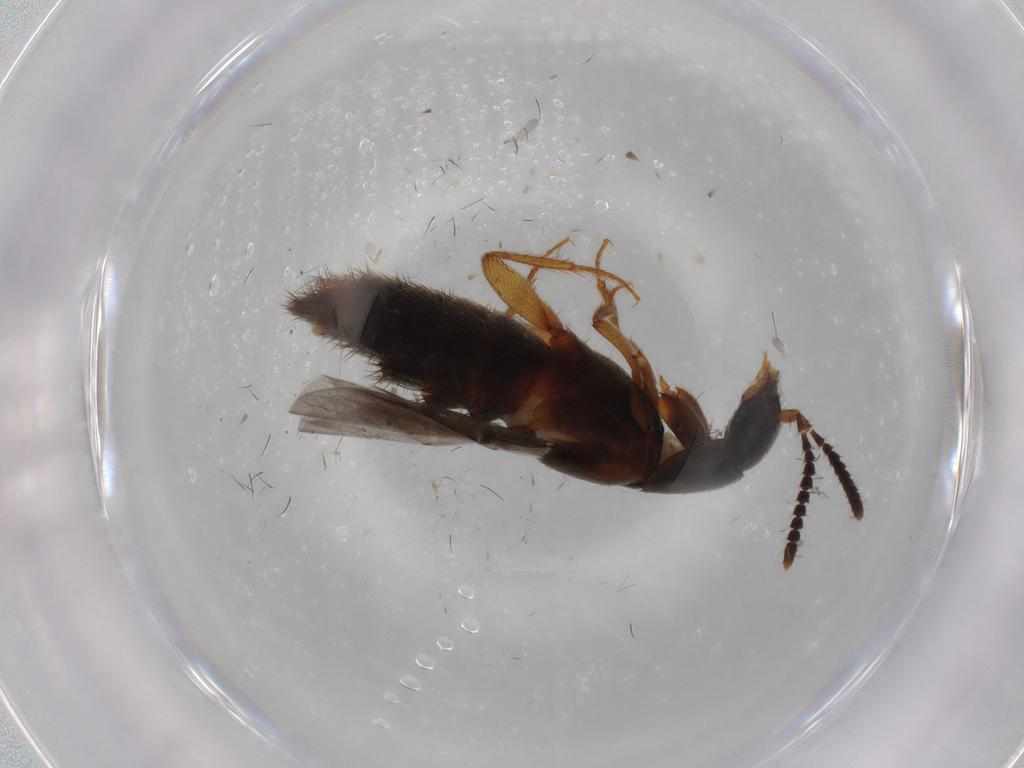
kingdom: Animalia
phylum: Arthropoda
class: Insecta
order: Coleoptera
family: Staphylinidae
